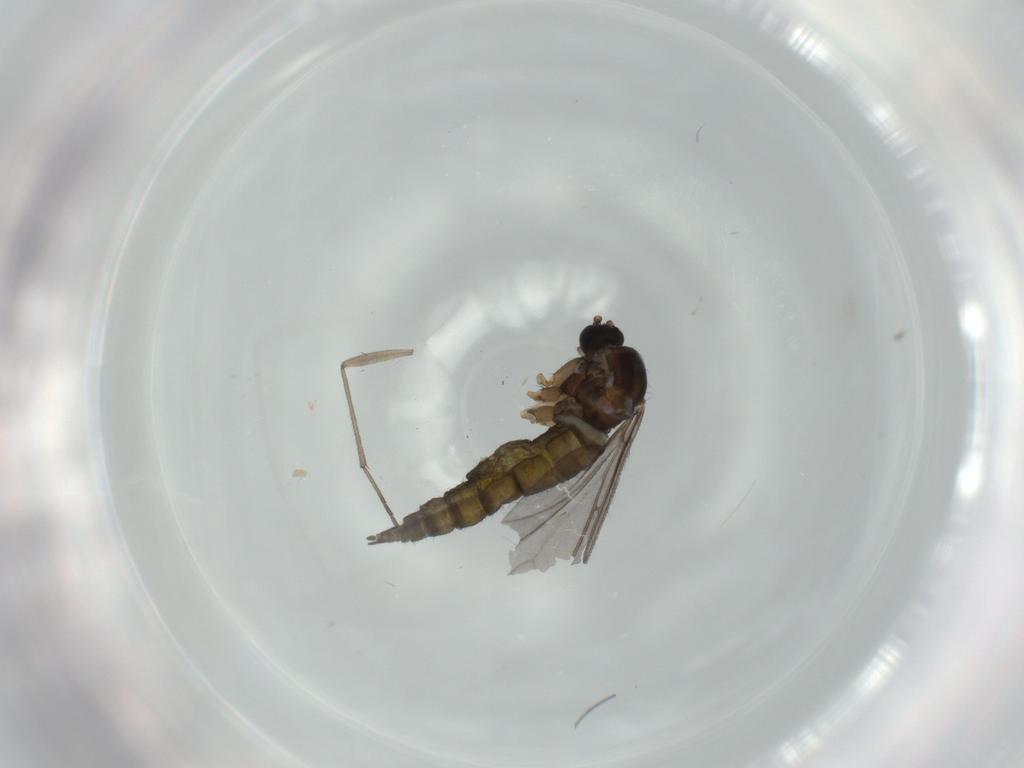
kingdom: Animalia
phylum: Arthropoda
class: Insecta
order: Diptera
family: Sciaridae
